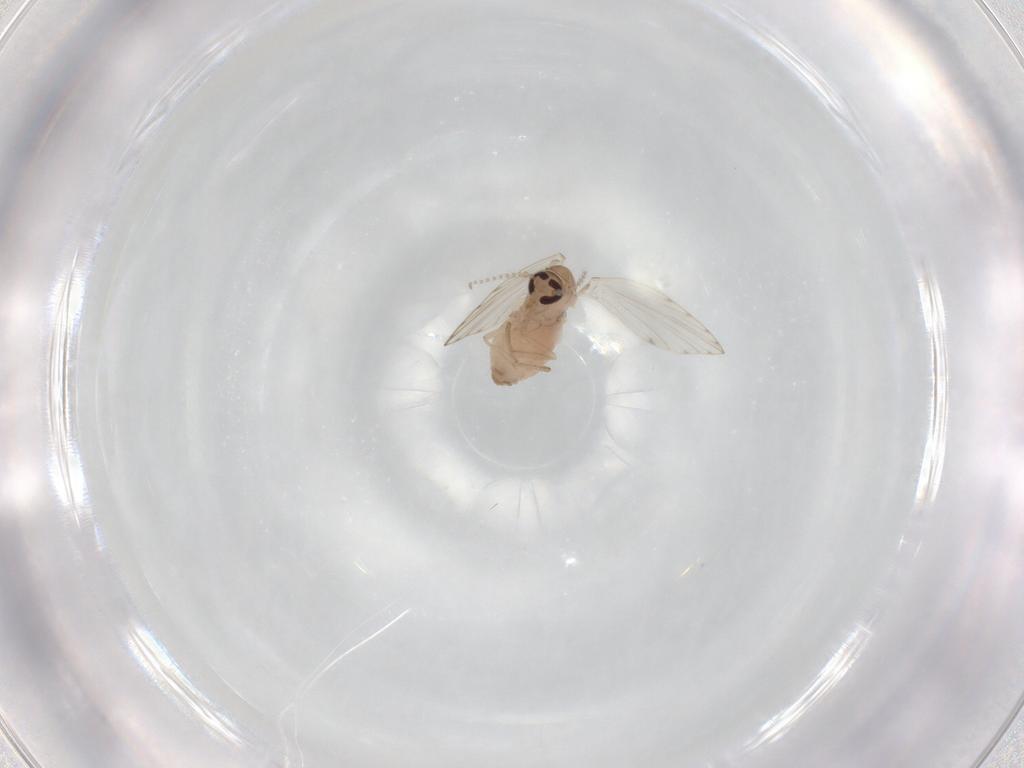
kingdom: Animalia
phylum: Arthropoda
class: Insecta
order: Diptera
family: Psychodidae
